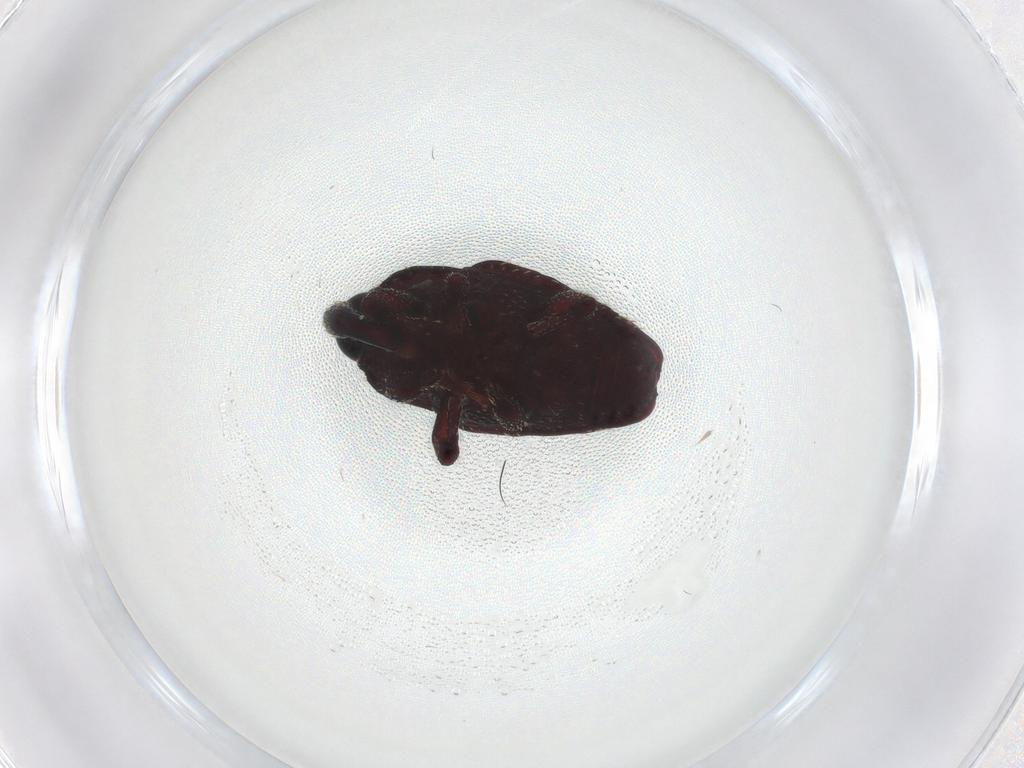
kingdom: Animalia
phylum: Arthropoda
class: Insecta
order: Coleoptera
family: Curculionidae
